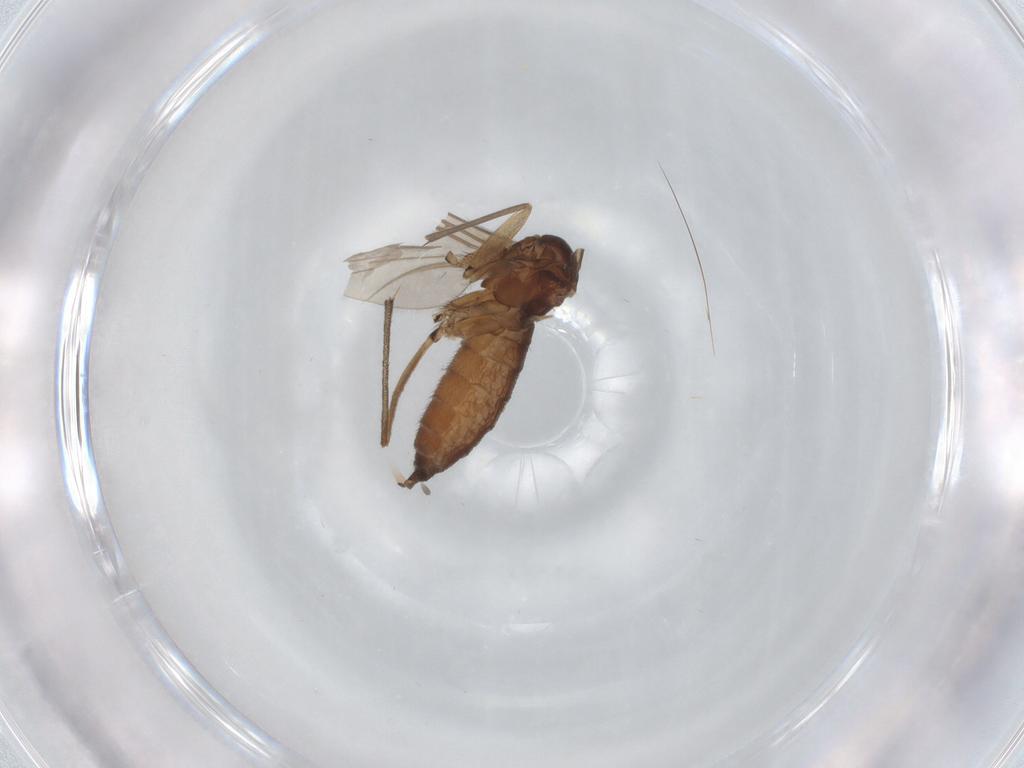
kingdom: Animalia
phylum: Arthropoda
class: Insecta
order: Diptera
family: Sciaridae
